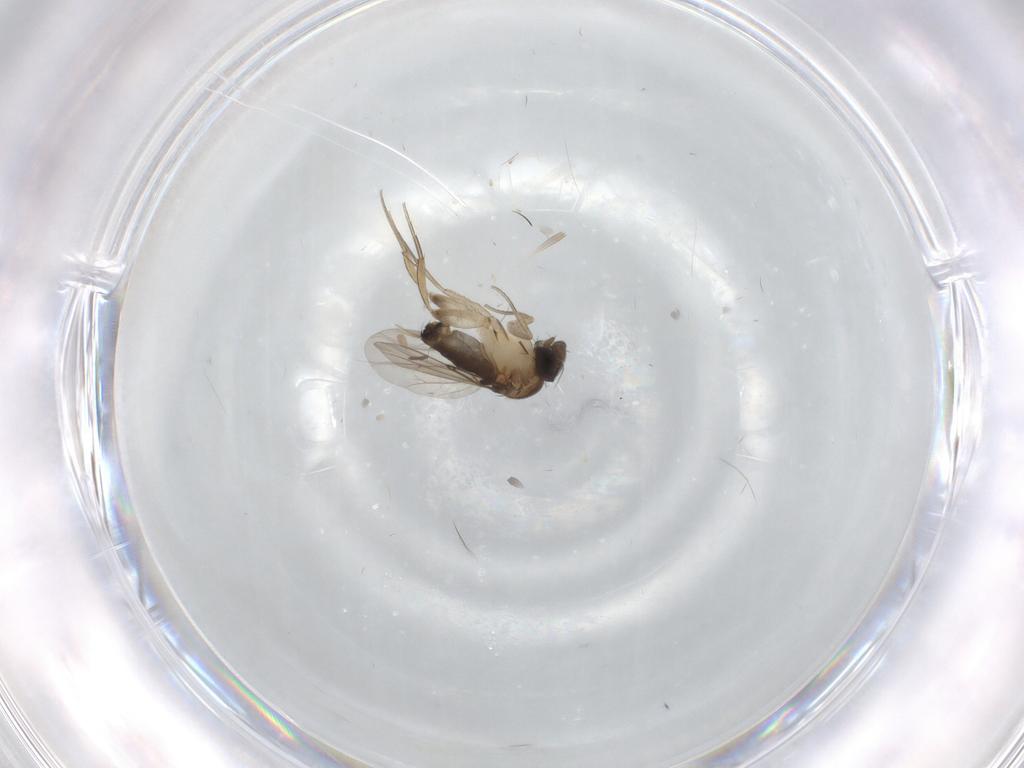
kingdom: Animalia
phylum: Arthropoda
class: Insecta
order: Diptera
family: Phoridae
